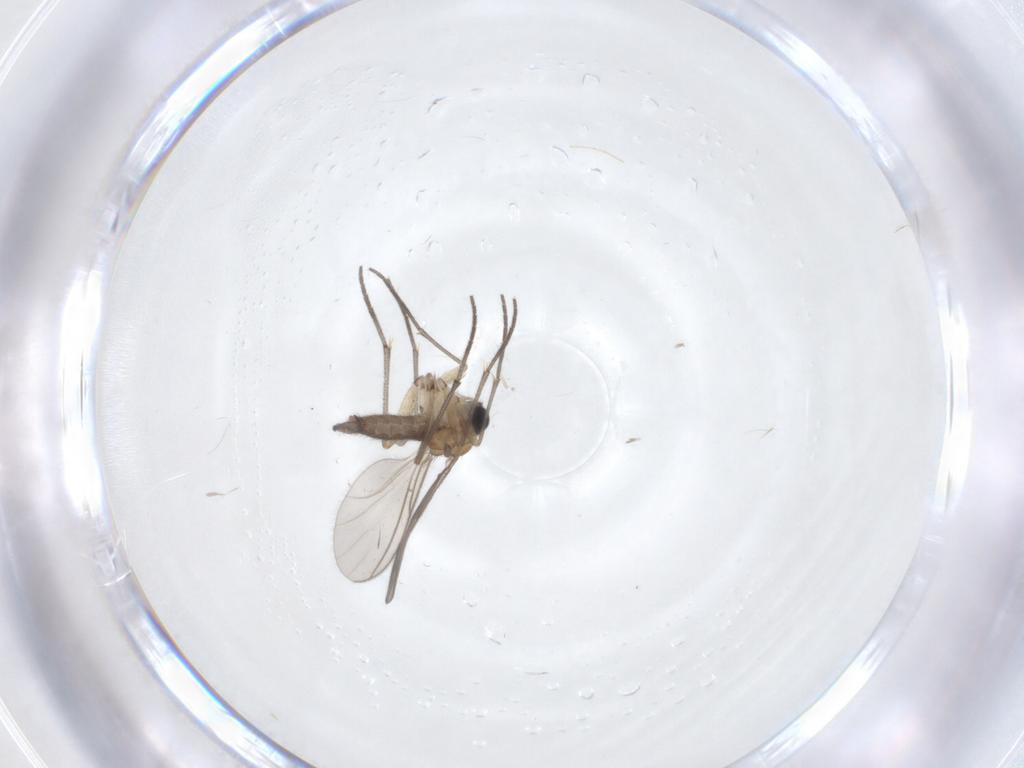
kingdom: Animalia
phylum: Arthropoda
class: Insecta
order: Diptera
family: Sciaridae
